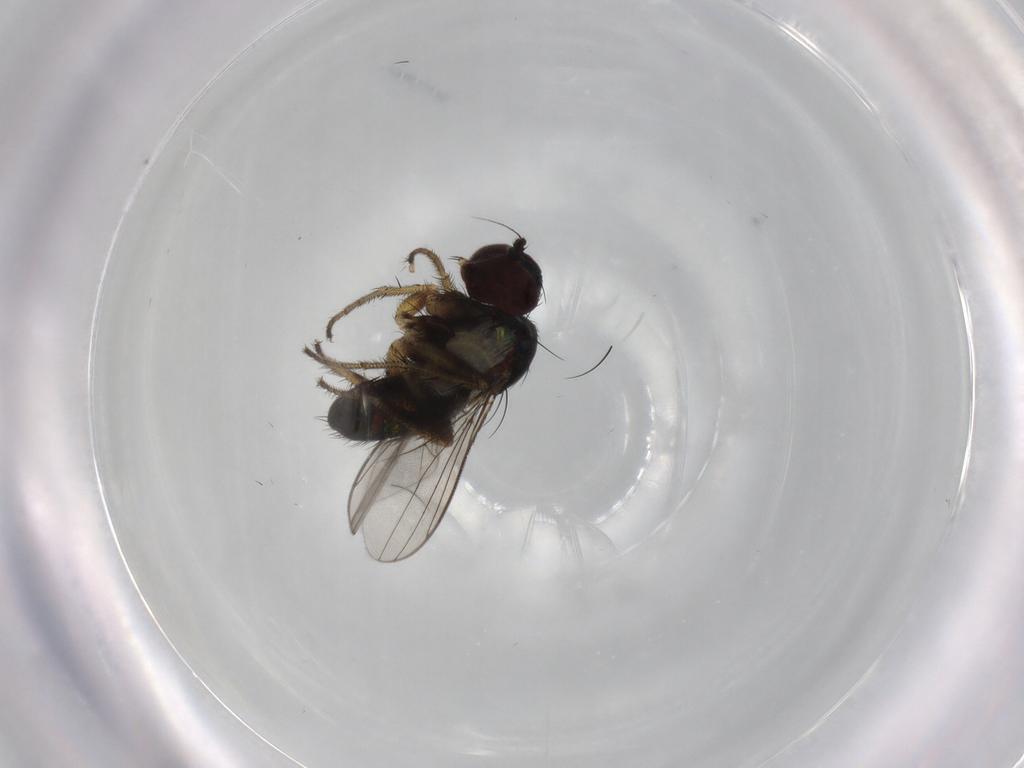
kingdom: Animalia
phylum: Arthropoda
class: Insecta
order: Diptera
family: Dolichopodidae
